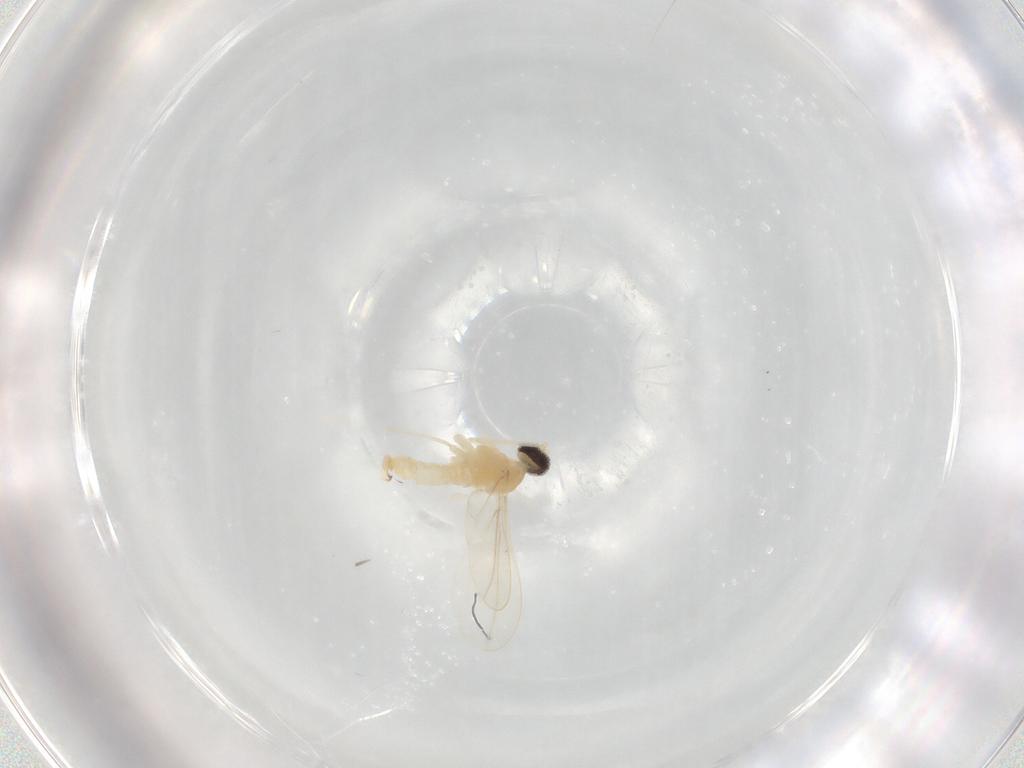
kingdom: Animalia
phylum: Arthropoda
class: Insecta
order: Diptera
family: Cecidomyiidae
